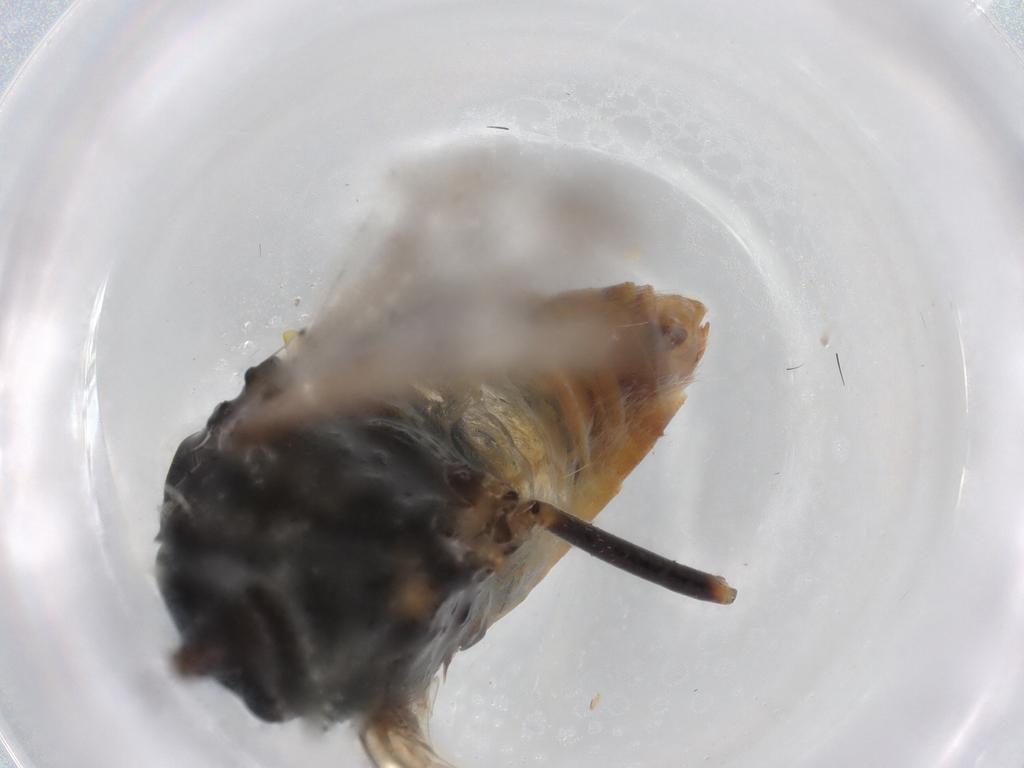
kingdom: Animalia
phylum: Arthropoda
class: Insecta
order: Diptera
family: Bombyliidae
